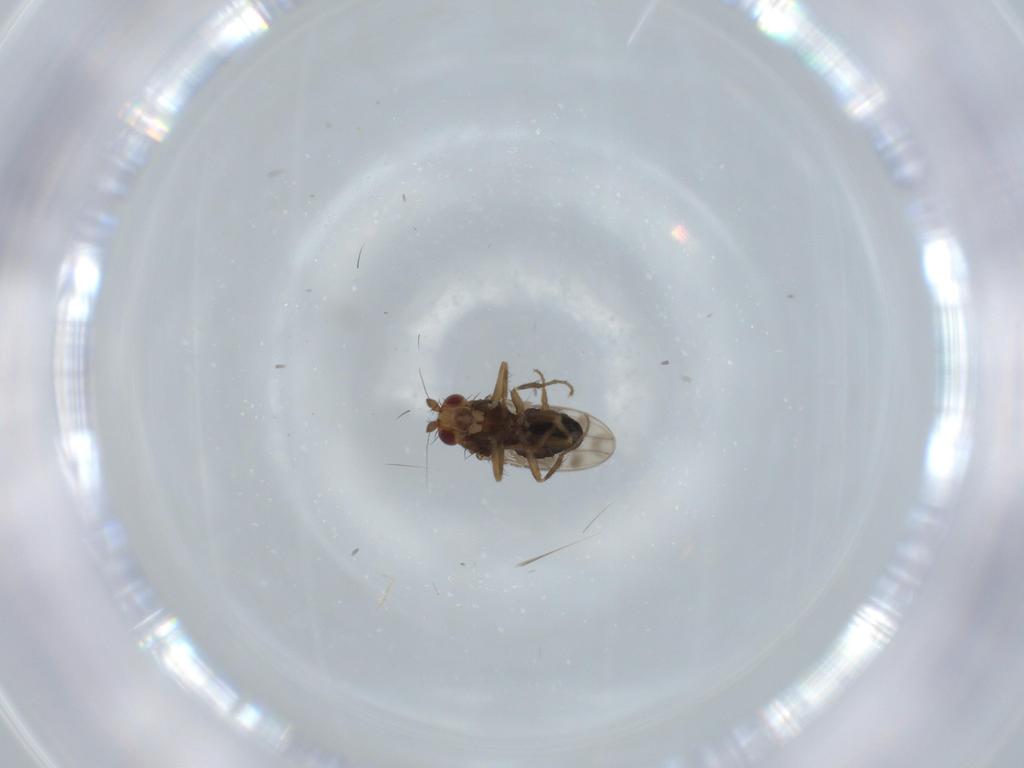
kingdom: Animalia
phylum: Arthropoda
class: Insecta
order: Diptera
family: Sphaeroceridae
